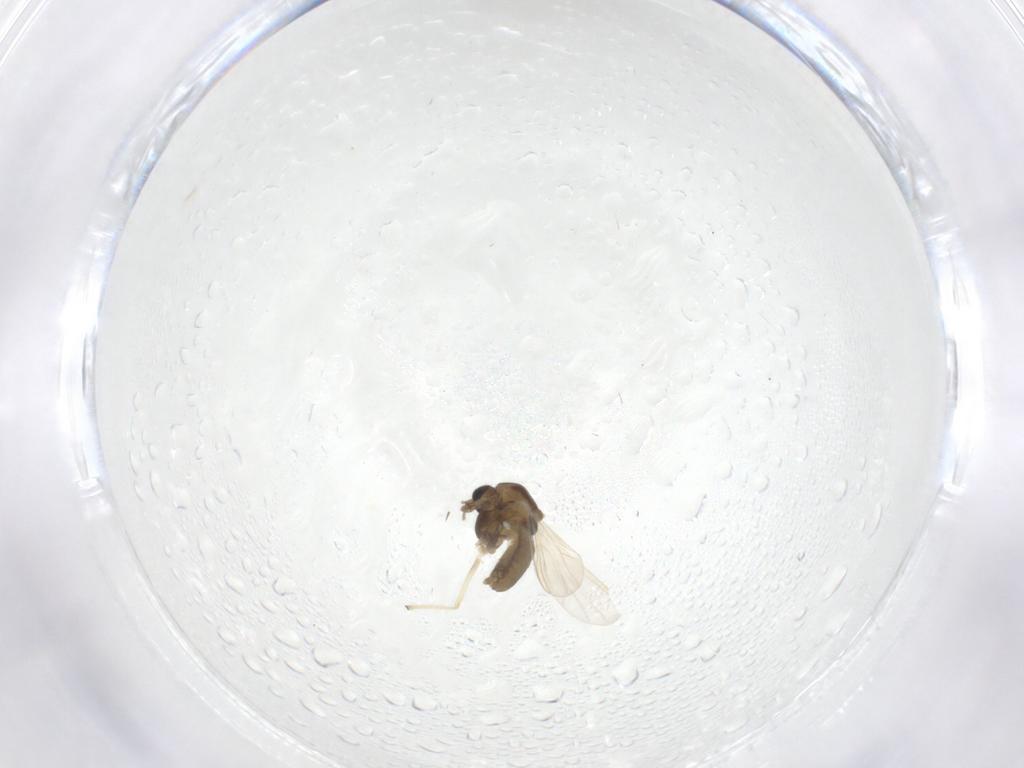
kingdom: Animalia
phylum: Arthropoda
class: Insecta
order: Diptera
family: Chironomidae
